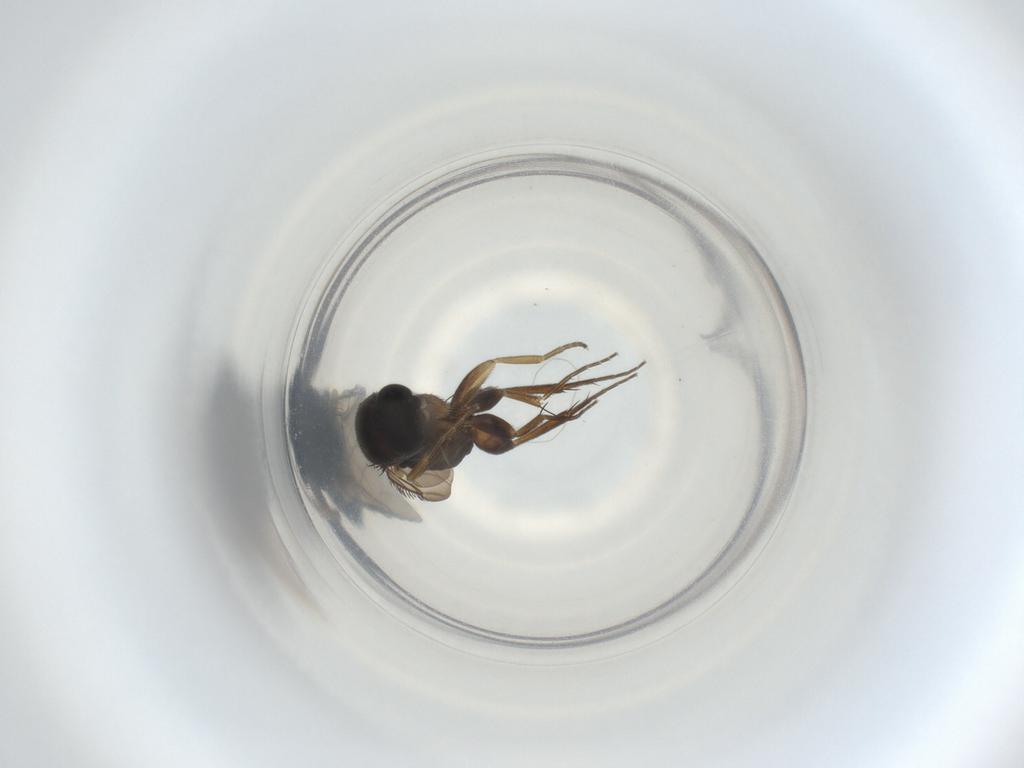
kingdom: Animalia
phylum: Arthropoda
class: Insecta
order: Diptera
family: Phoridae
